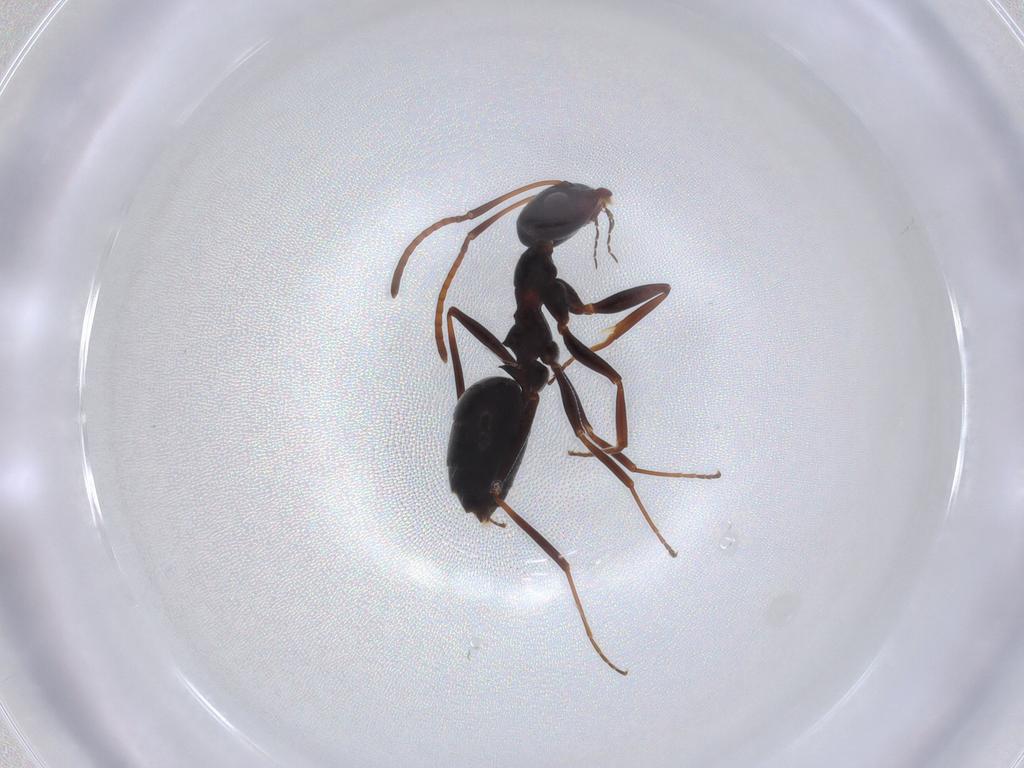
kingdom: Animalia
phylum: Arthropoda
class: Insecta
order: Hymenoptera
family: Formicidae
